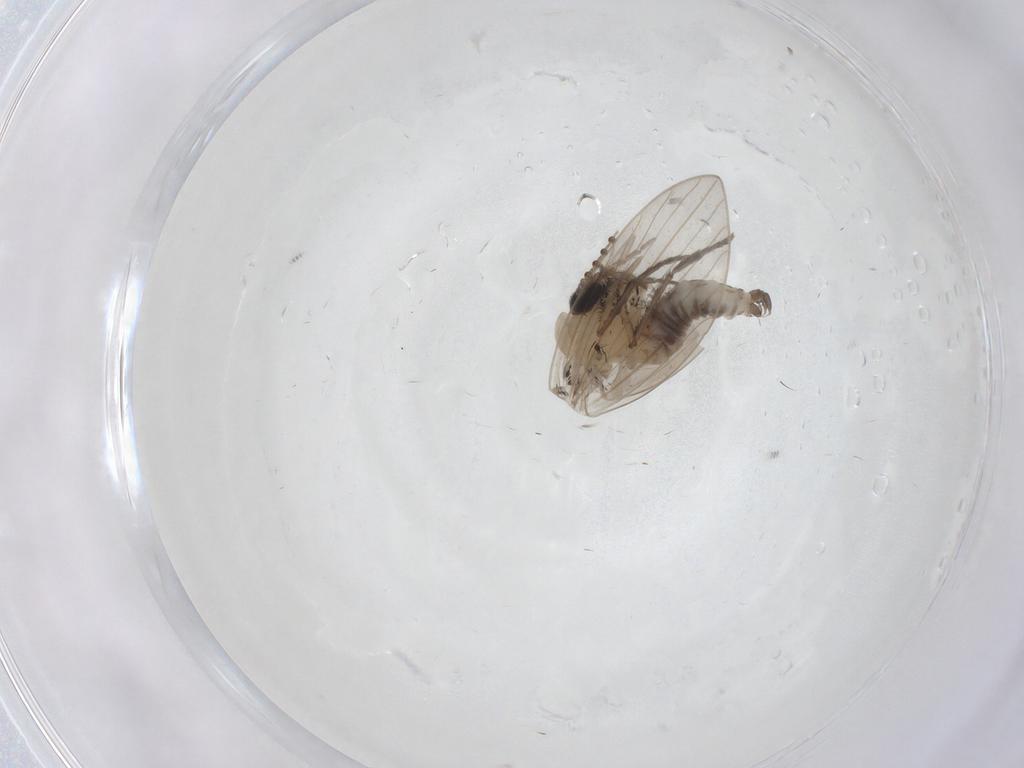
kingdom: Animalia
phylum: Arthropoda
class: Insecta
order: Diptera
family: Psychodidae
